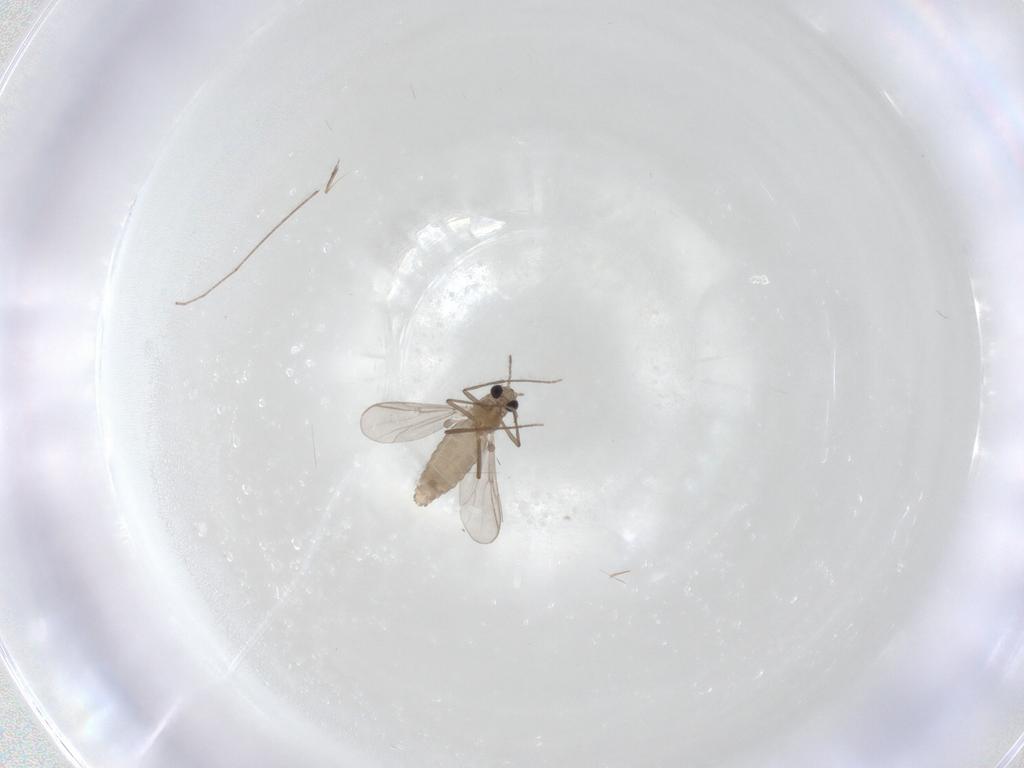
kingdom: Animalia
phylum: Arthropoda
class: Insecta
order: Diptera
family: Chironomidae
